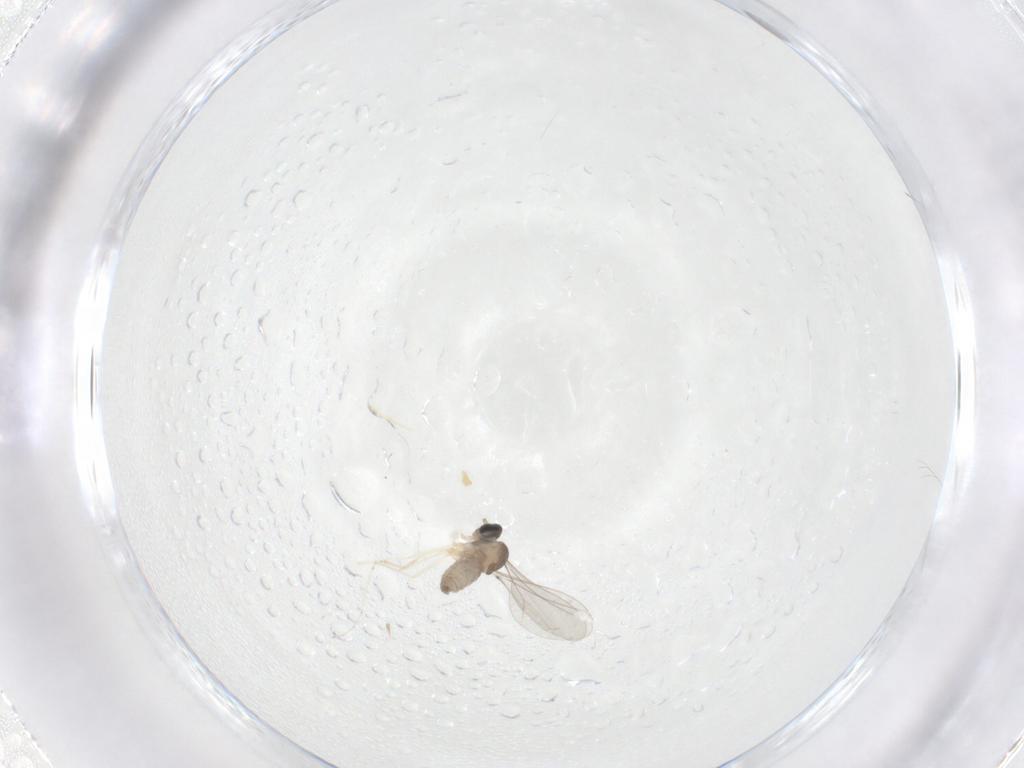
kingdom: Animalia
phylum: Arthropoda
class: Insecta
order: Diptera
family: Cecidomyiidae
